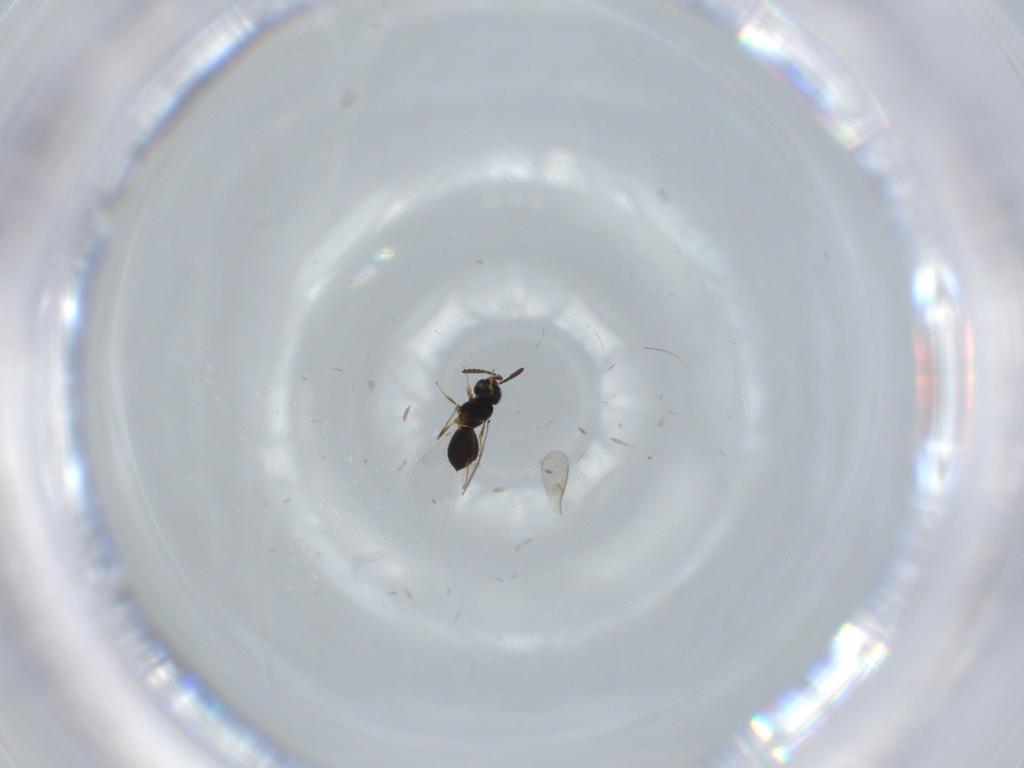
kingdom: Animalia
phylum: Arthropoda
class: Insecta
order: Hymenoptera
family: Scelionidae
